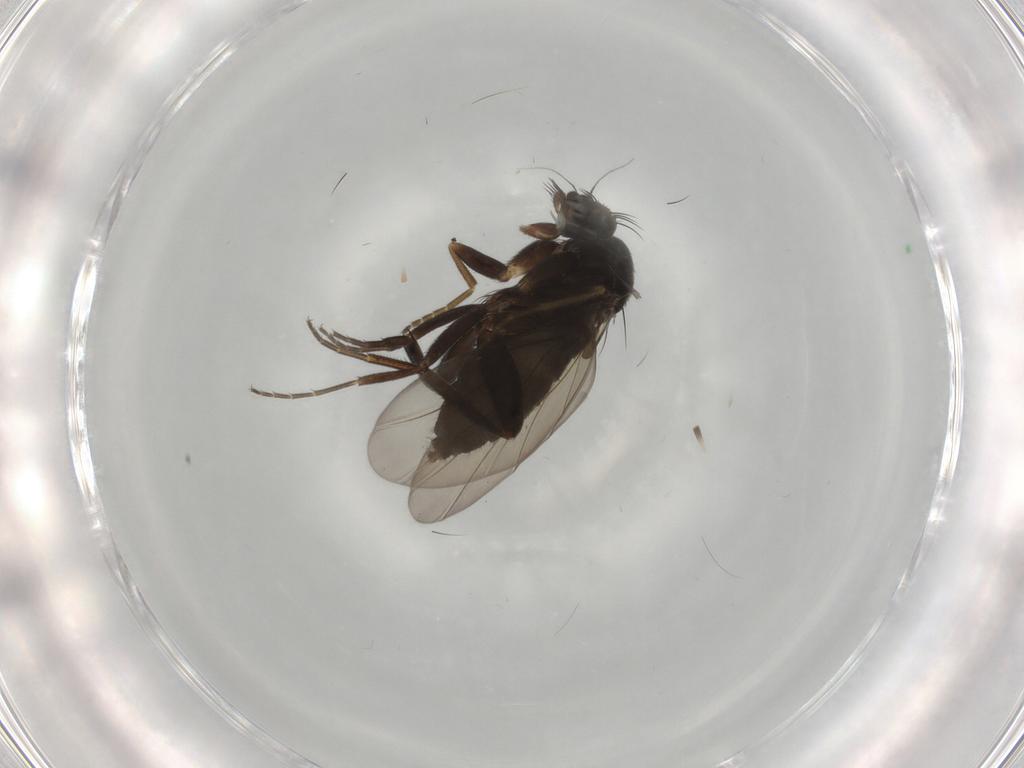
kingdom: Animalia
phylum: Arthropoda
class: Insecta
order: Diptera
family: Phoridae
